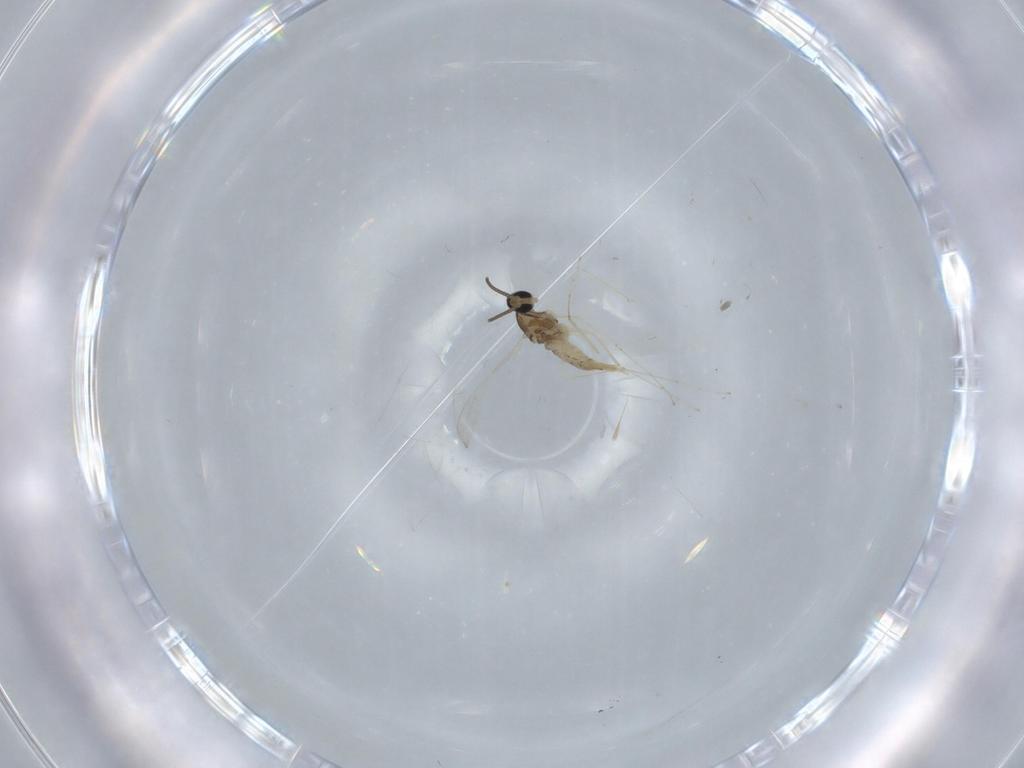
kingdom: Animalia
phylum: Arthropoda
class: Insecta
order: Diptera
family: Cecidomyiidae
